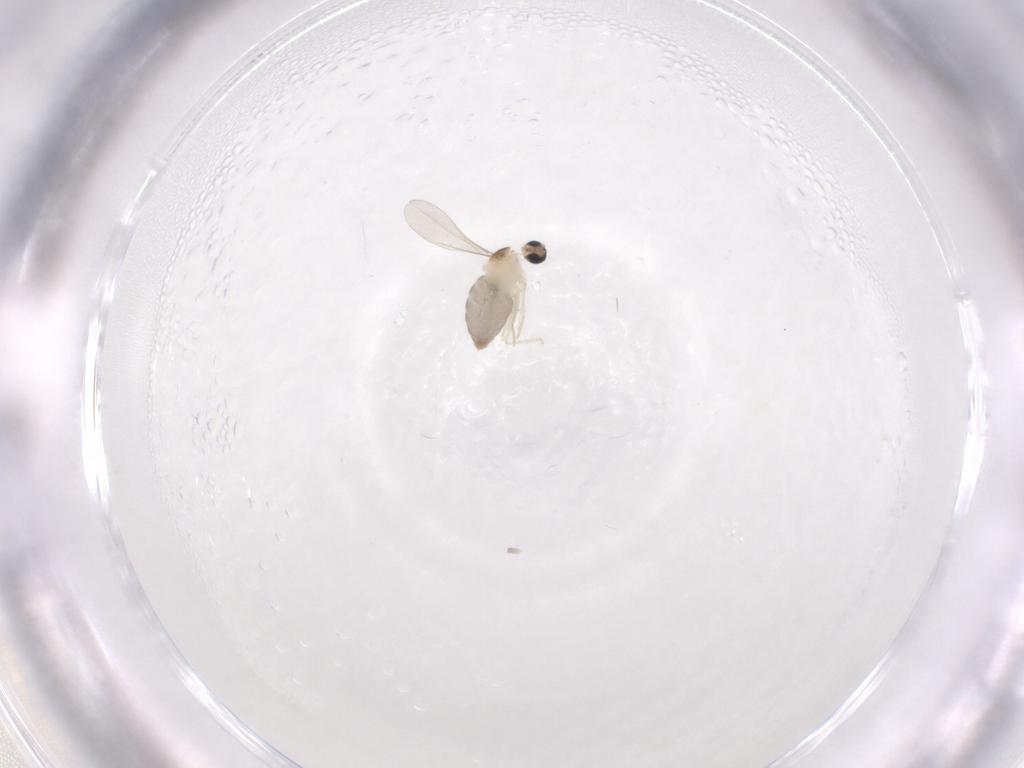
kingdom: Animalia
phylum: Arthropoda
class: Insecta
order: Diptera
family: Cecidomyiidae
